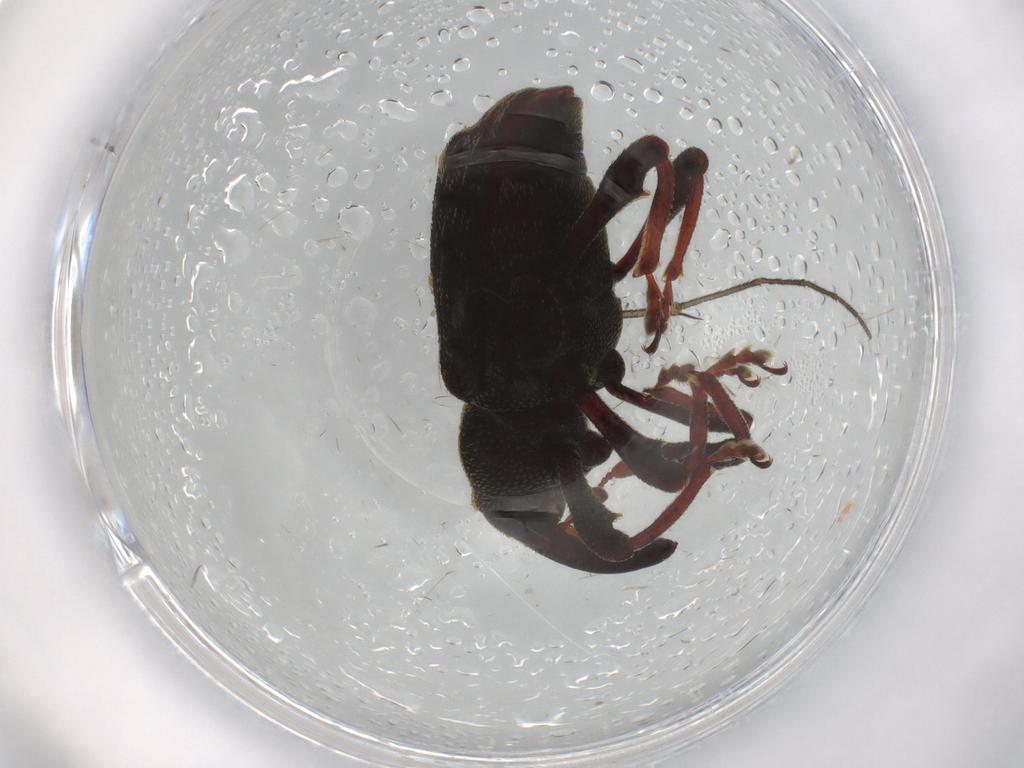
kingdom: Animalia
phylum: Arthropoda
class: Insecta
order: Coleoptera
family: Curculionidae
